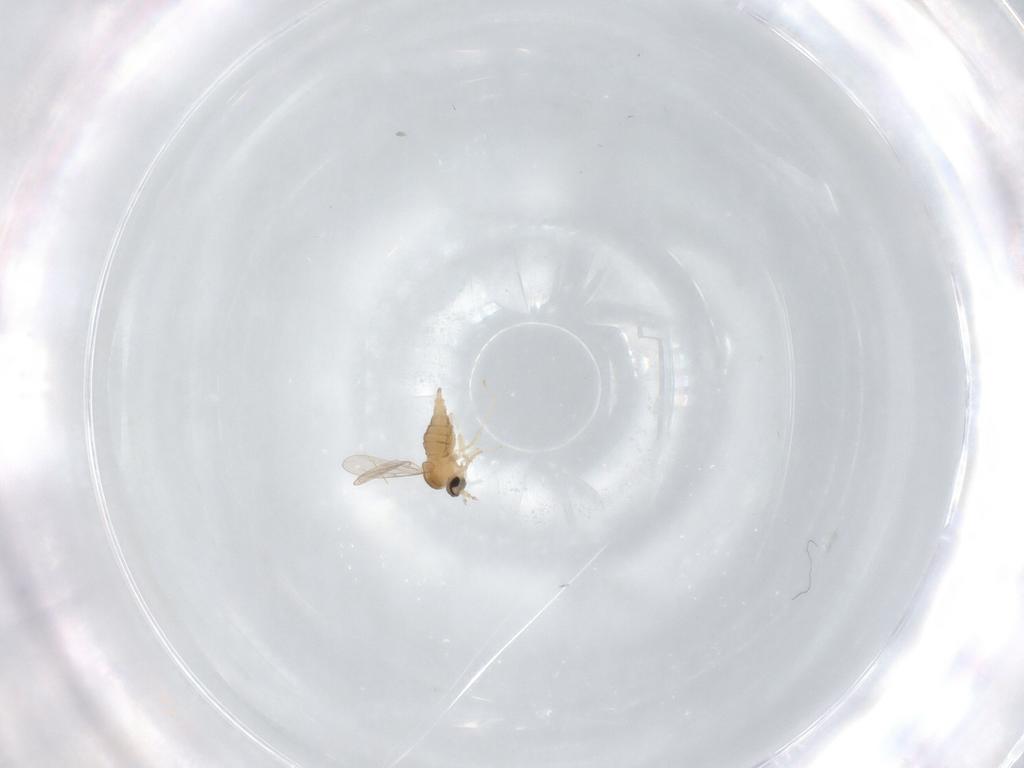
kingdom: Animalia
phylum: Arthropoda
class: Insecta
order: Diptera
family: Cecidomyiidae
